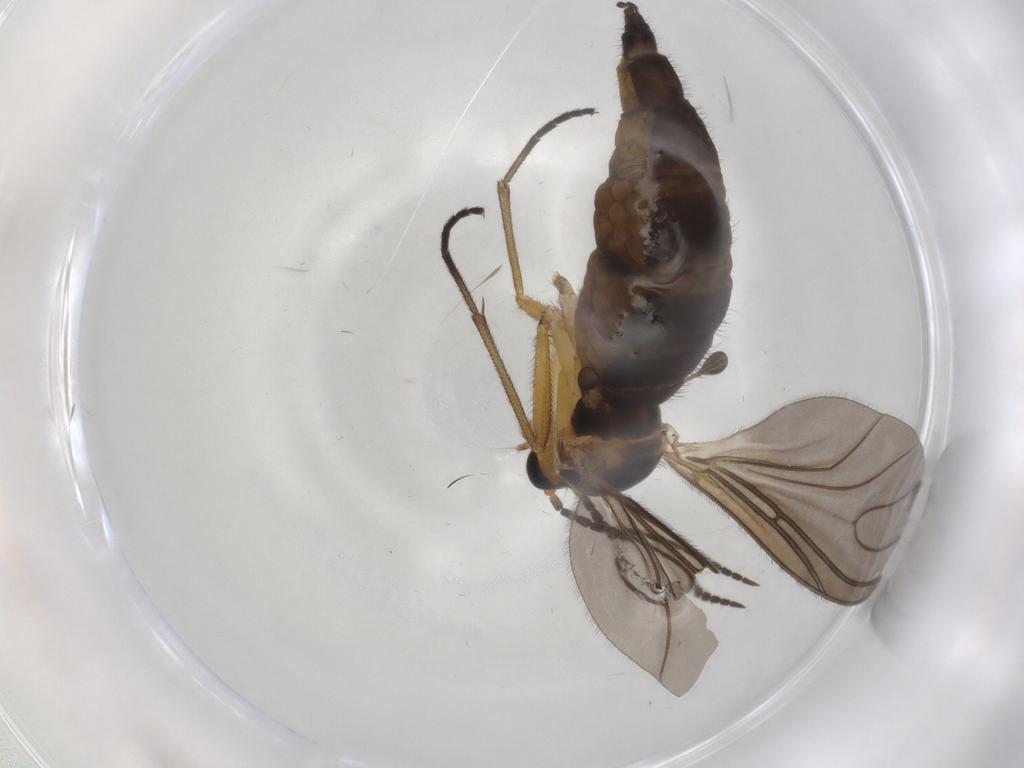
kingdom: Animalia
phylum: Arthropoda
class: Insecta
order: Diptera
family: Sciaridae
